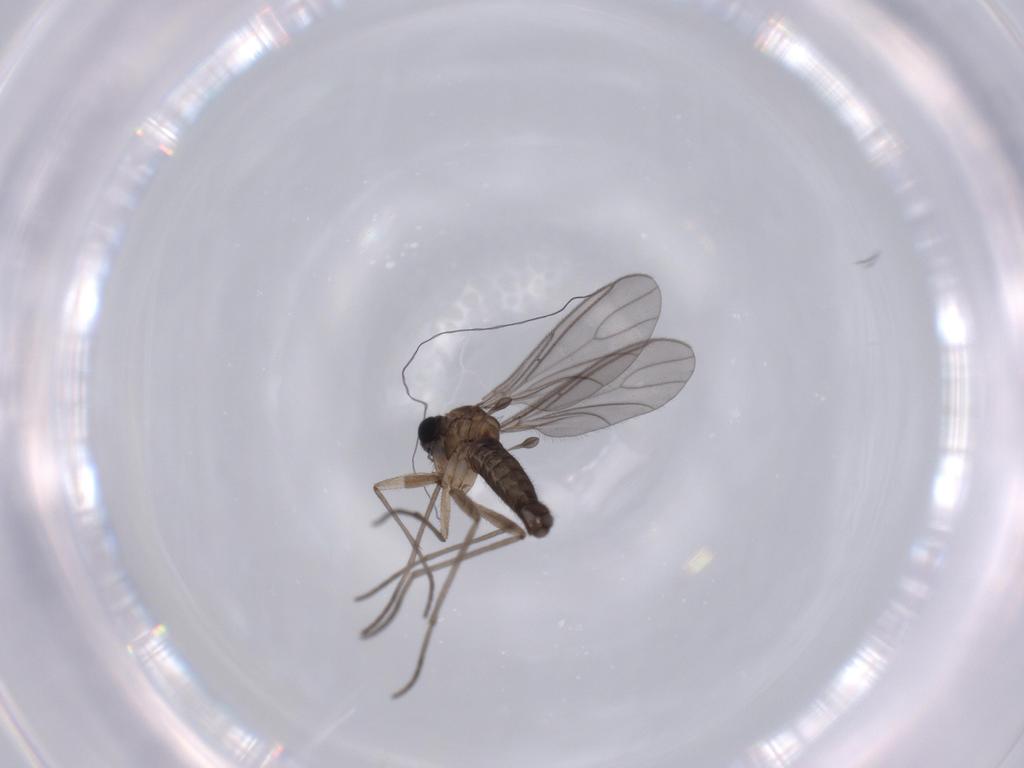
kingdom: Animalia
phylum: Arthropoda
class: Insecta
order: Diptera
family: Sciaridae
